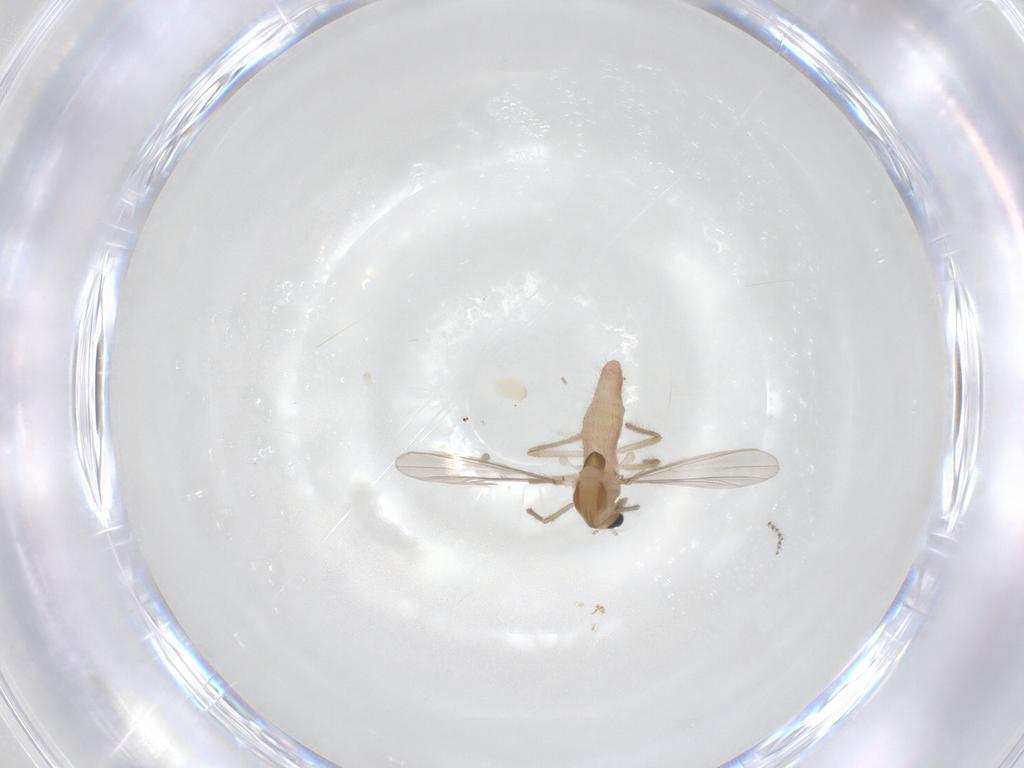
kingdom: Animalia
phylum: Arthropoda
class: Insecta
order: Diptera
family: Chironomidae
